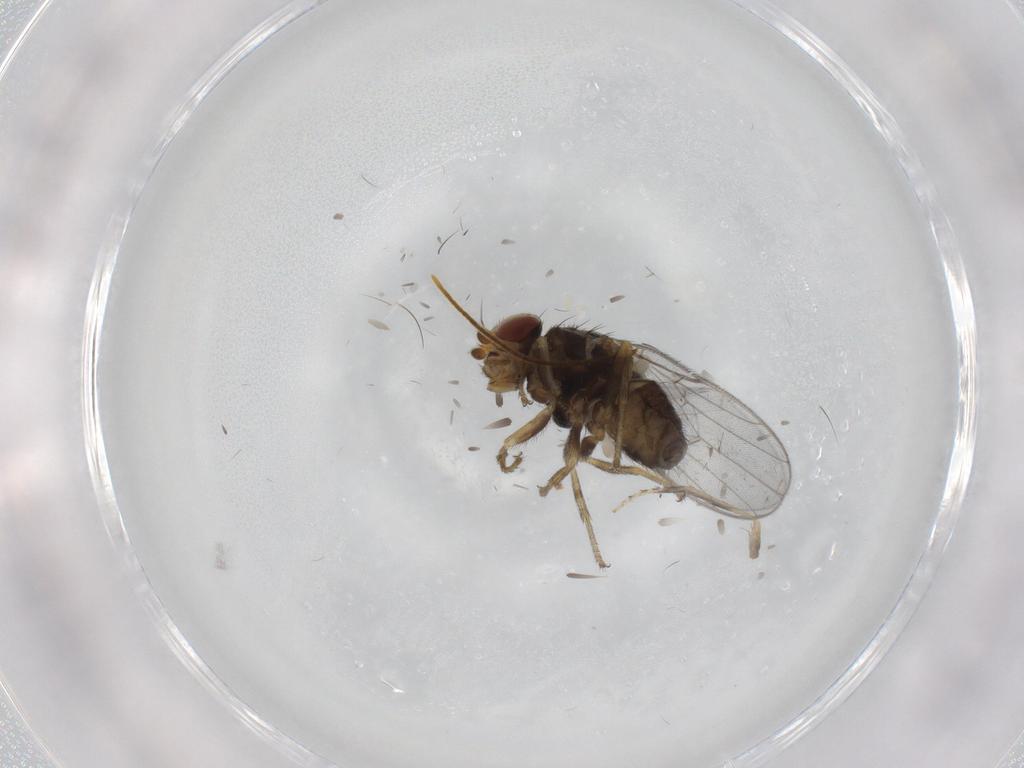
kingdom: Animalia
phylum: Arthropoda
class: Insecta
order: Diptera
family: Chloropidae
